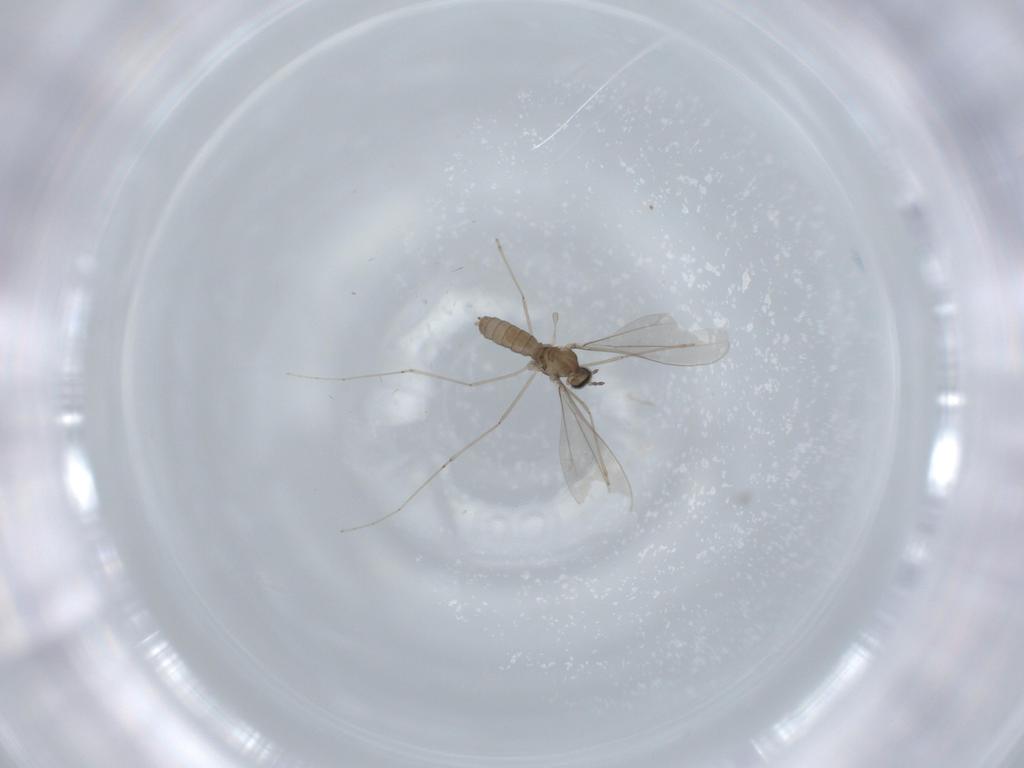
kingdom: Animalia
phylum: Arthropoda
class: Insecta
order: Diptera
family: Cecidomyiidae
